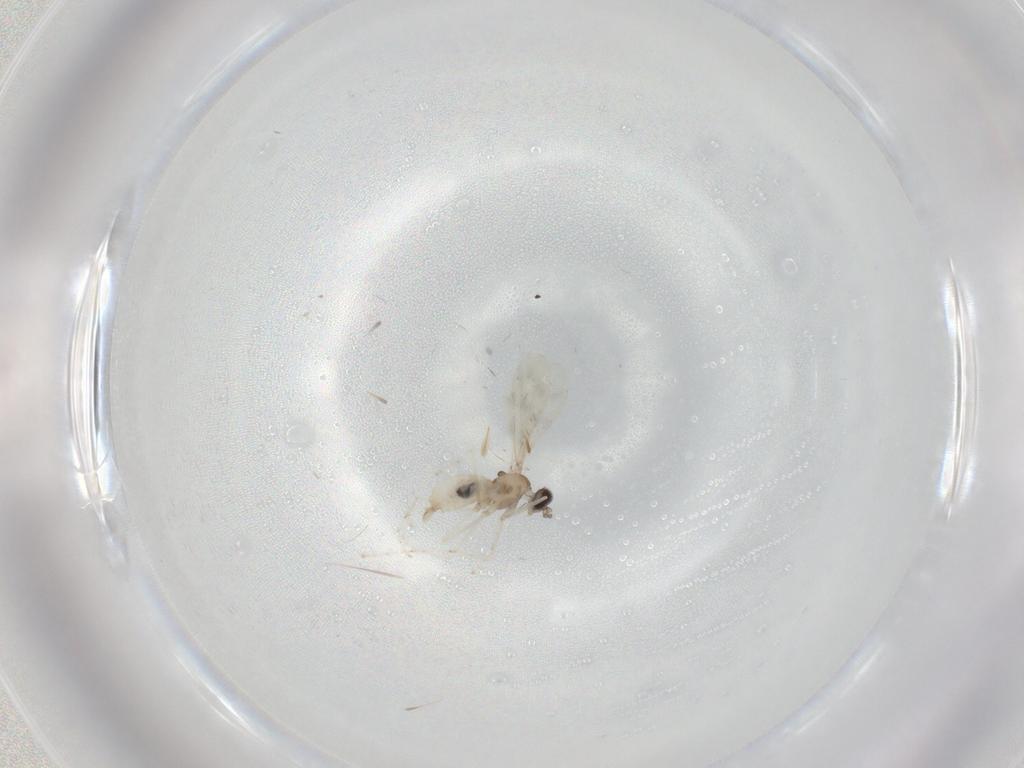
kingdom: Animalia
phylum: Arthropoda
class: Insecta
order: Diptera
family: Cecidomyiidae
